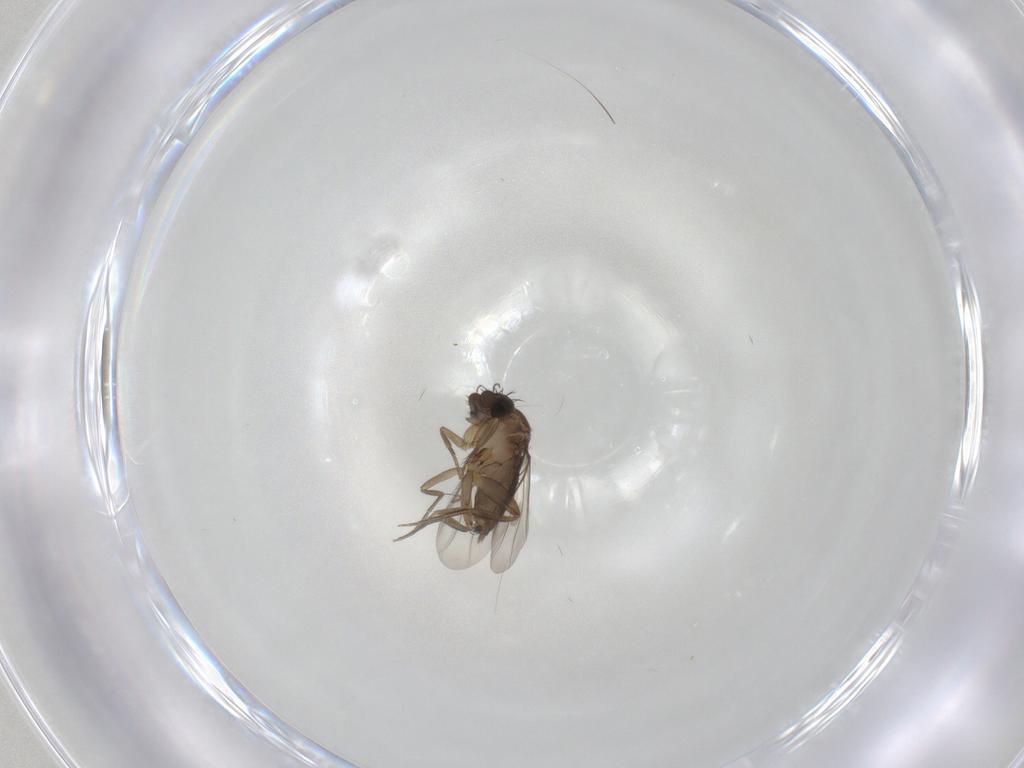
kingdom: Animalia
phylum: Arthropoda
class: Insecta
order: Diptera
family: Phoridae
